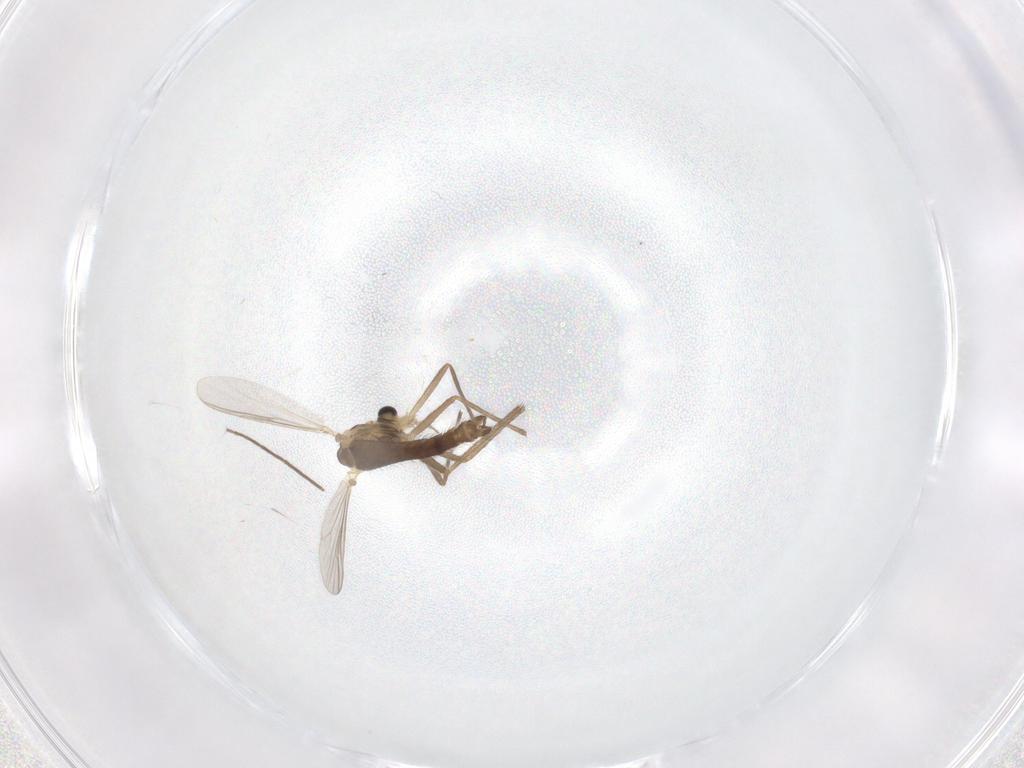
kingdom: Animalia
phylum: Arthropoda
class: Insecta
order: Diptera
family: Chironomidae
